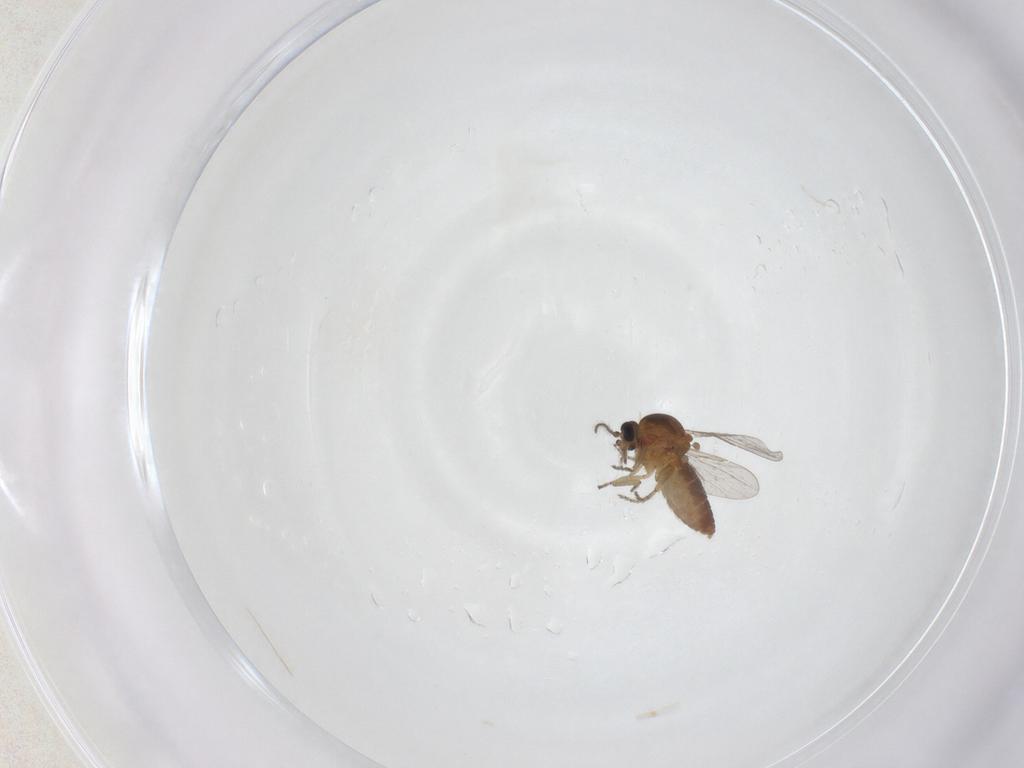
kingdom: Animalia
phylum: Arthropoda
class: Insecta
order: Diptera
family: Ceratopogonidae
